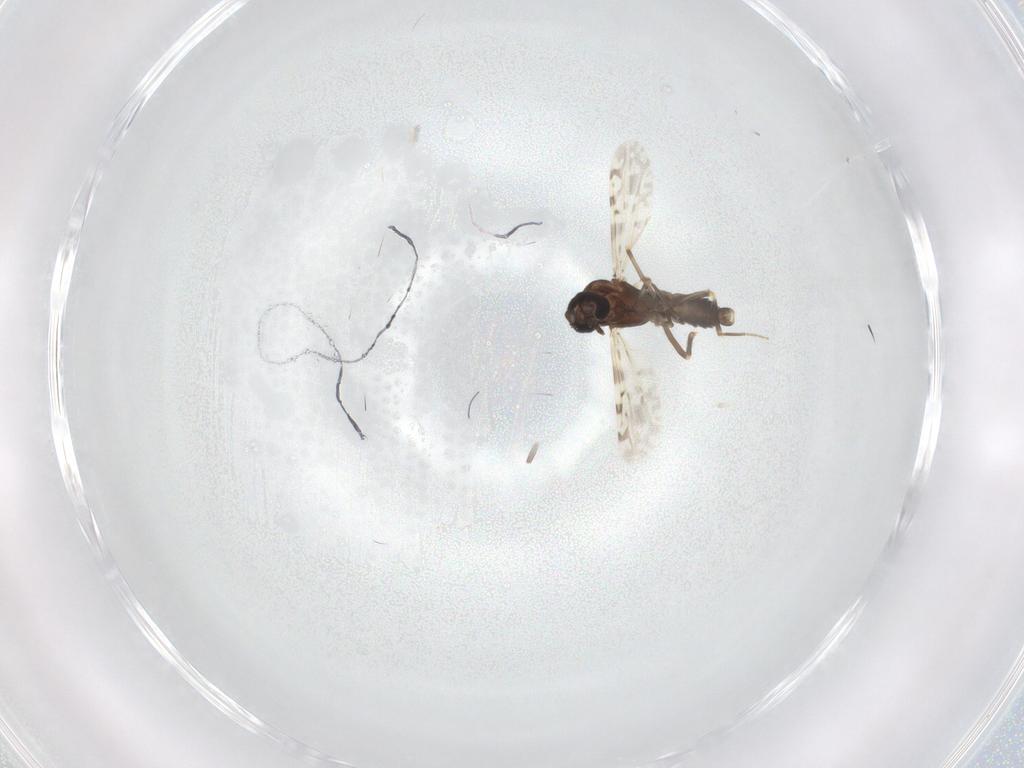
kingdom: Animalia
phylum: Arthropoda
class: Insecta
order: Diptera
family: Ceratopogonidae
